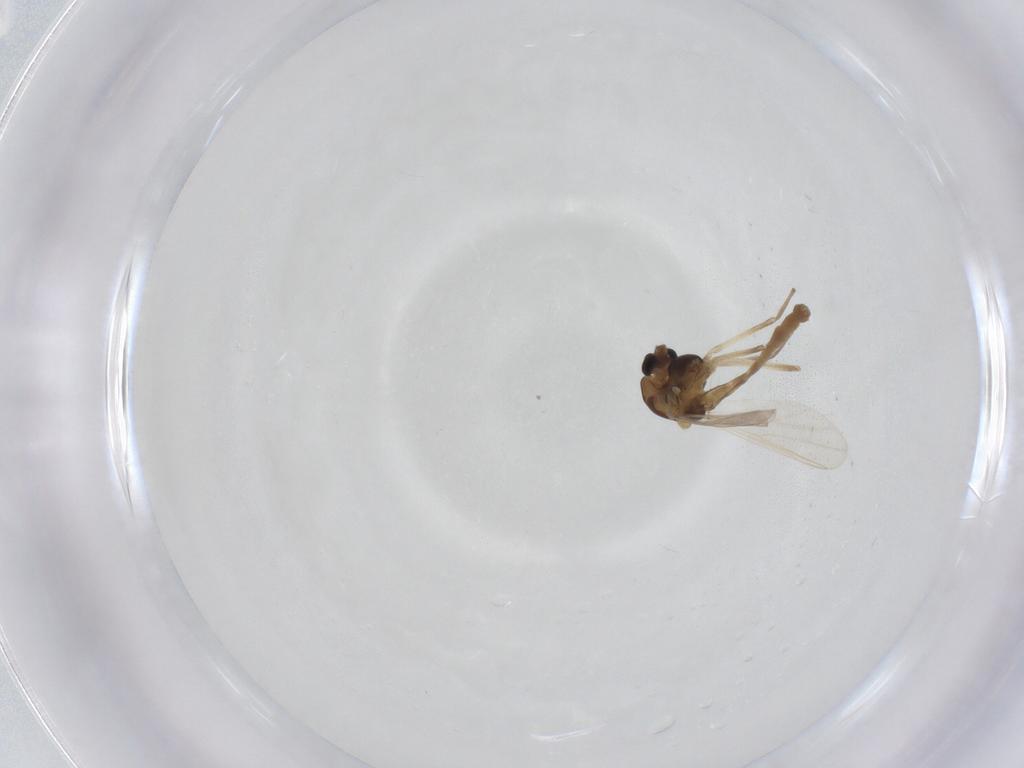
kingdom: Animalia
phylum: Arthropoda
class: Insecta
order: Diptera
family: Chironomidae
